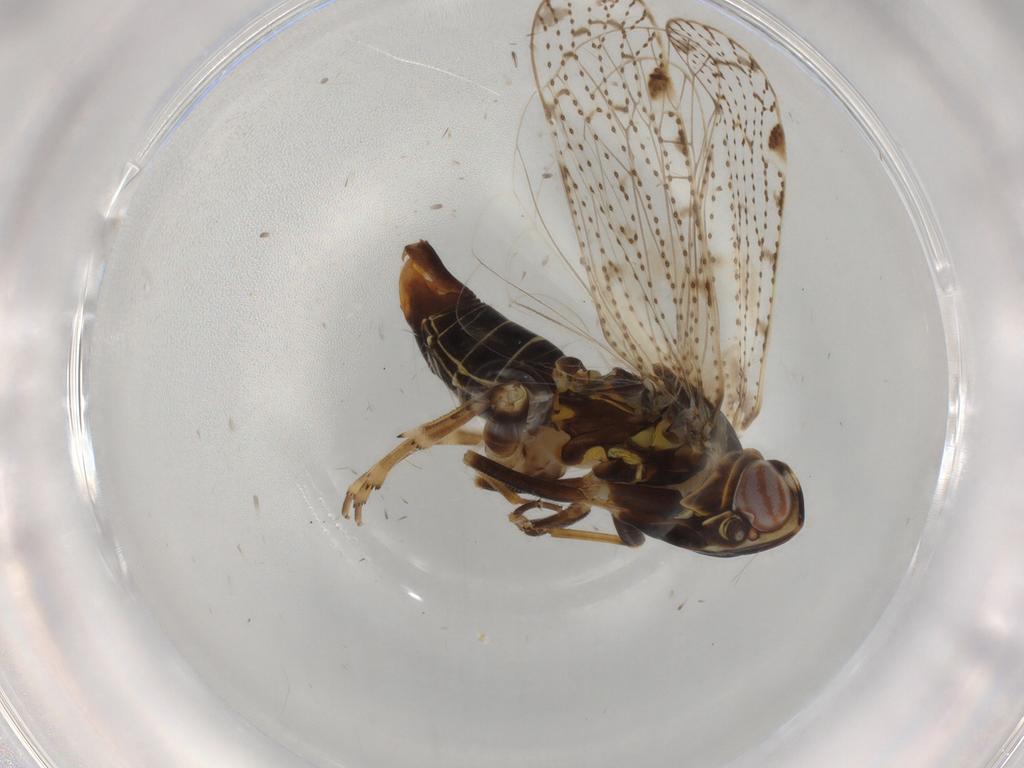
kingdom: Animalia
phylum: Arthropoda
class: Insecta
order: Hemiptera
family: Cixiidae
